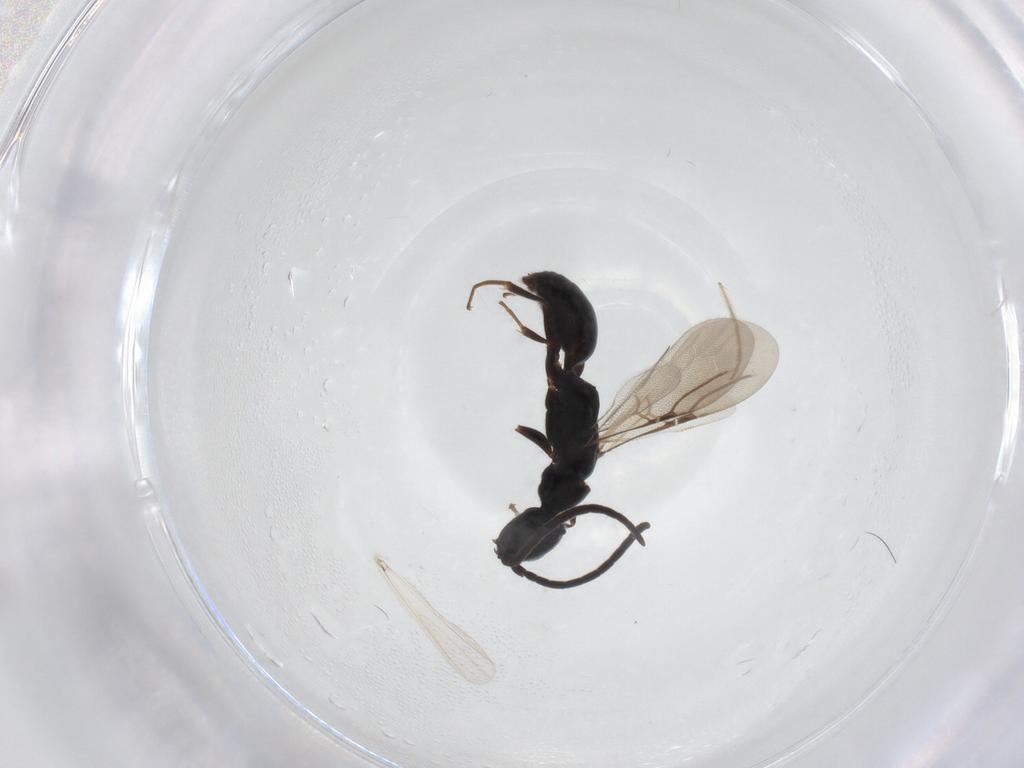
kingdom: Animalia
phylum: Arthropoda
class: Insecta
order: Hymenoptera
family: Bethylidae
